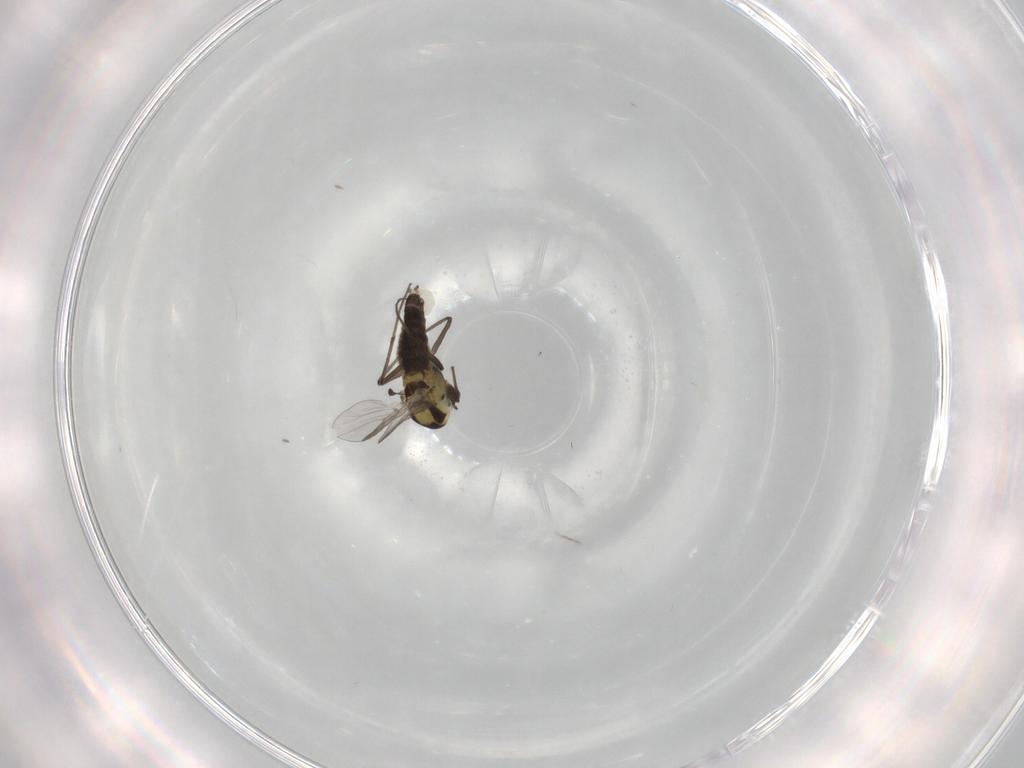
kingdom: Animalia
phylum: Arthropoda
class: Insecta
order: Diptera
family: Chironomidae
